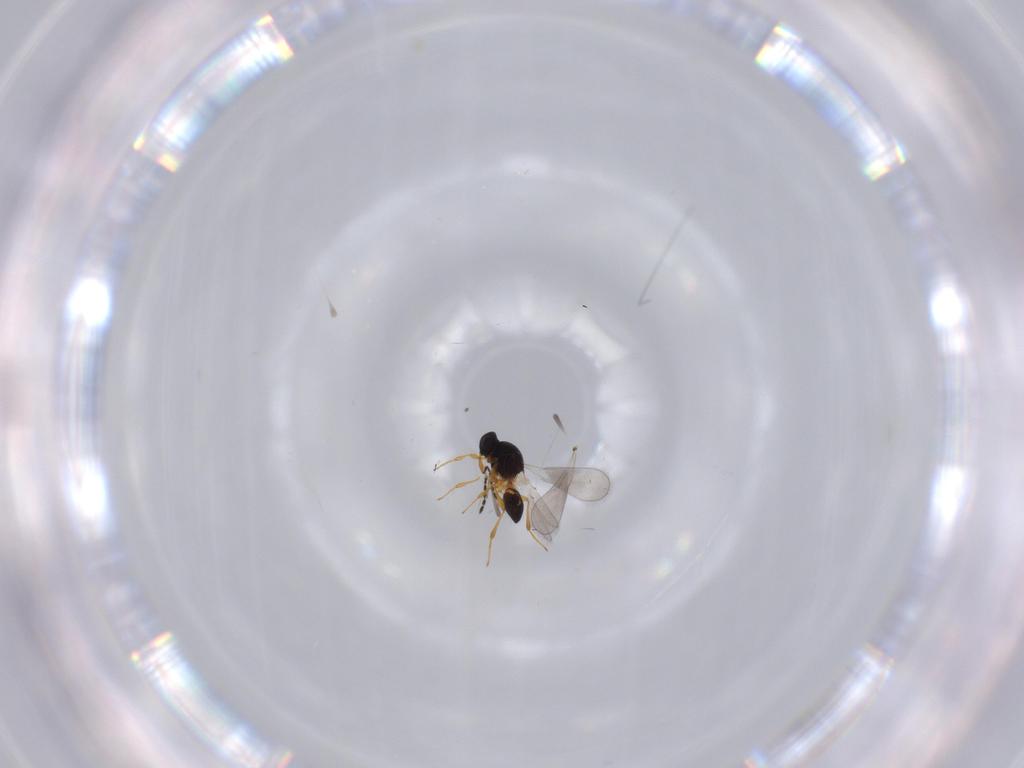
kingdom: Animalia
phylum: Arthropoda
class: Insecta
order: Hymenoptera
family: Platygastridae
